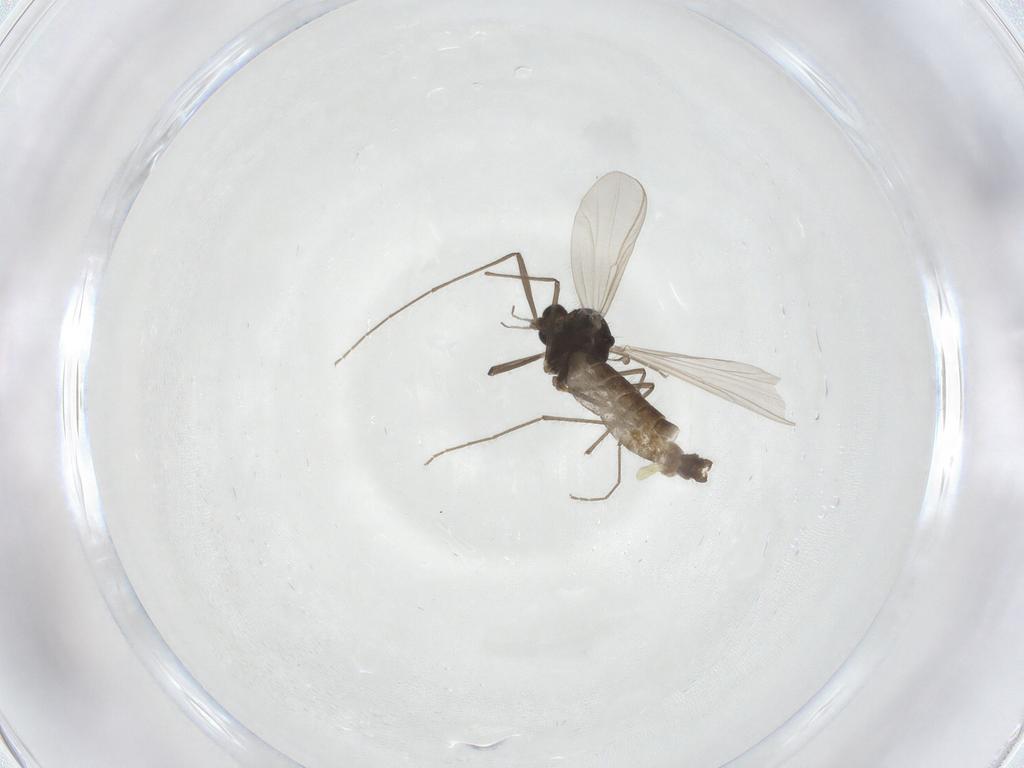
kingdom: Animalia
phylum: Arthropoda
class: Insecta
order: Diptera
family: Chironomidae
